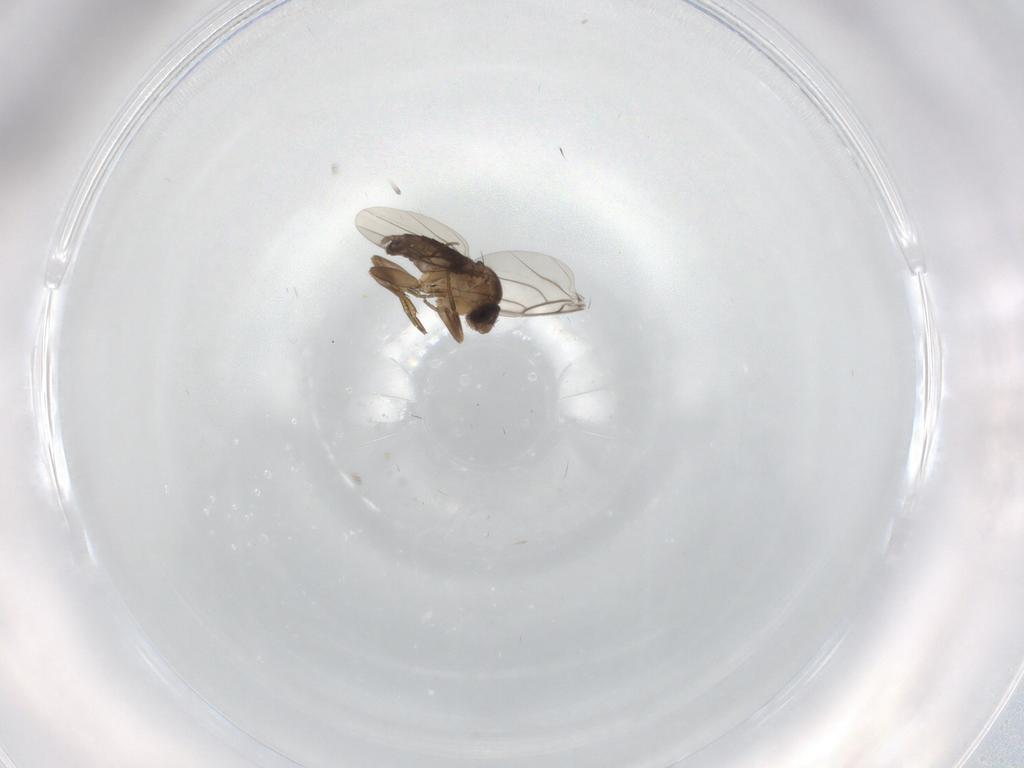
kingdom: Animalia
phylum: Arthropoda
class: Insecta
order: Diptera
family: Phoridae
